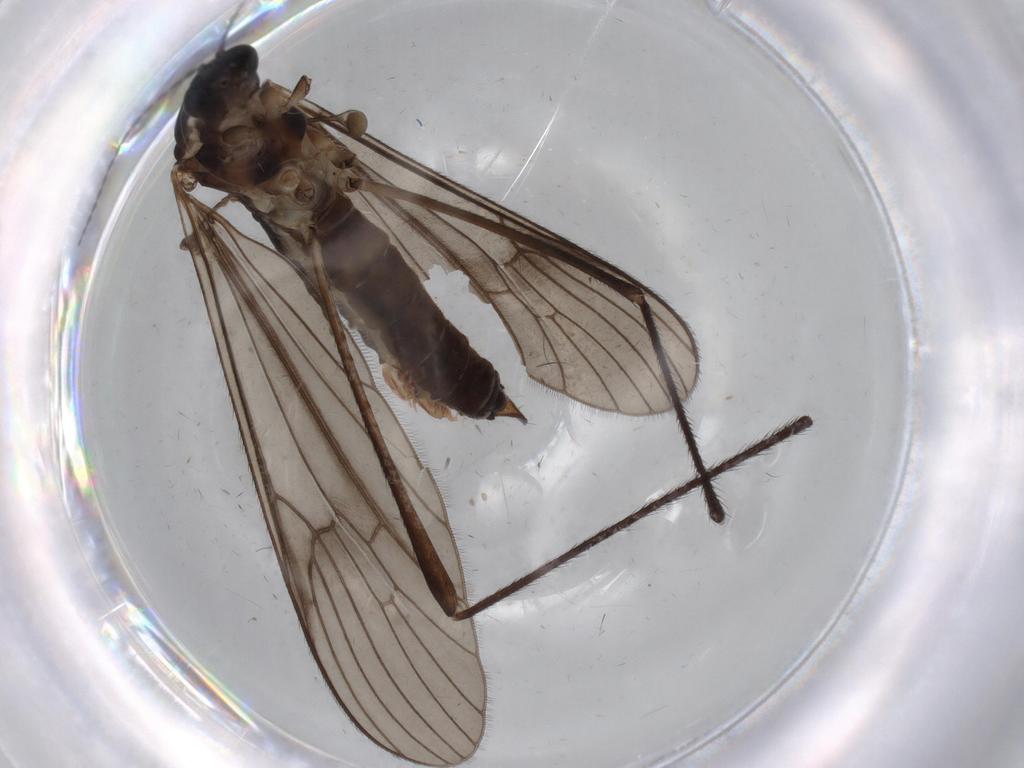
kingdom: Animalia
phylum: Arthropoda
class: Insecta
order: Diptera
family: Limoniidae
